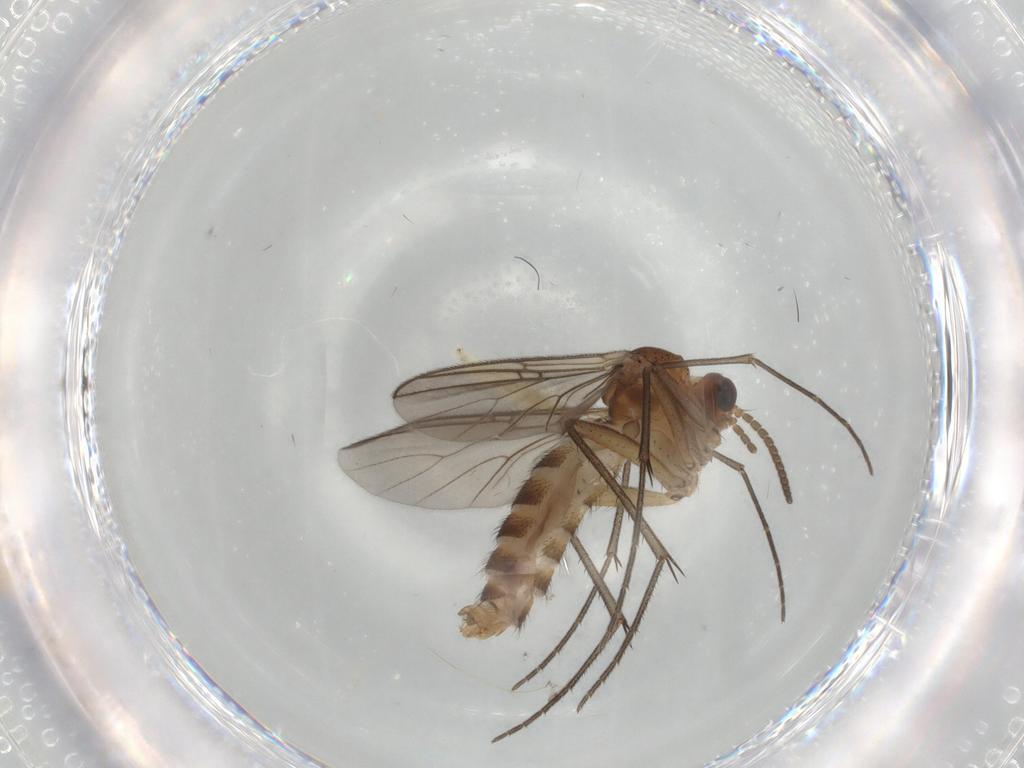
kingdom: Animalia
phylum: Arthropoda
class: Insecta
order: Diptera
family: Mycetophilidae
